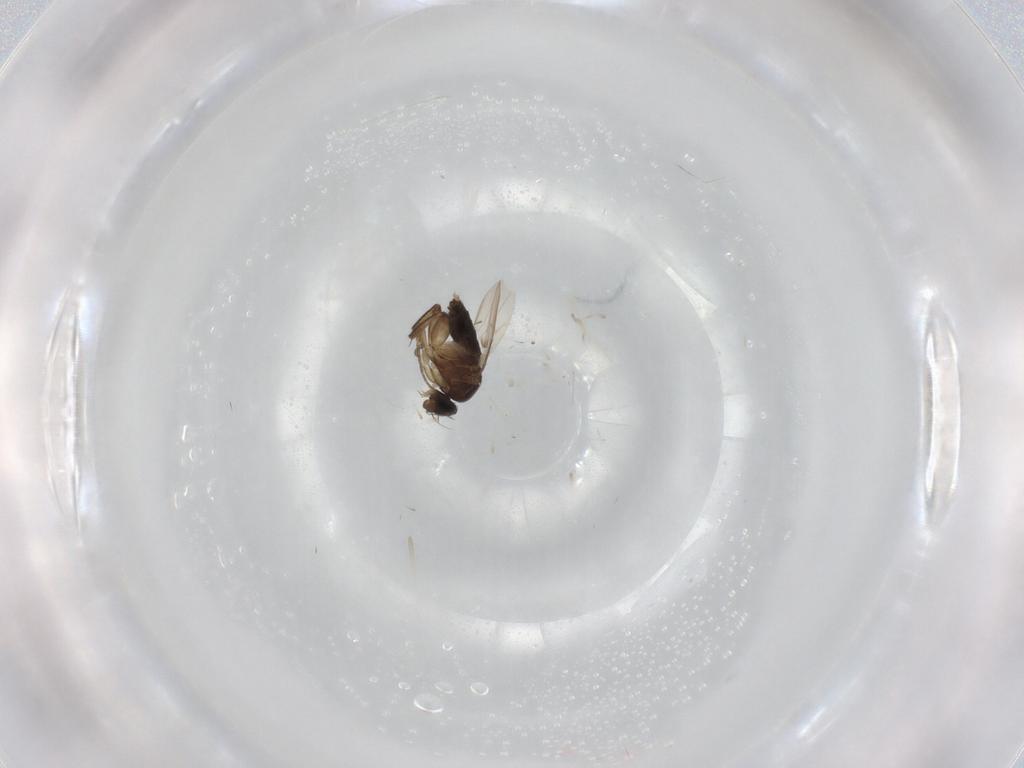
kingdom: Animalia
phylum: Arthropoda
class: Insecta
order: Diptera
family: Phoridae
